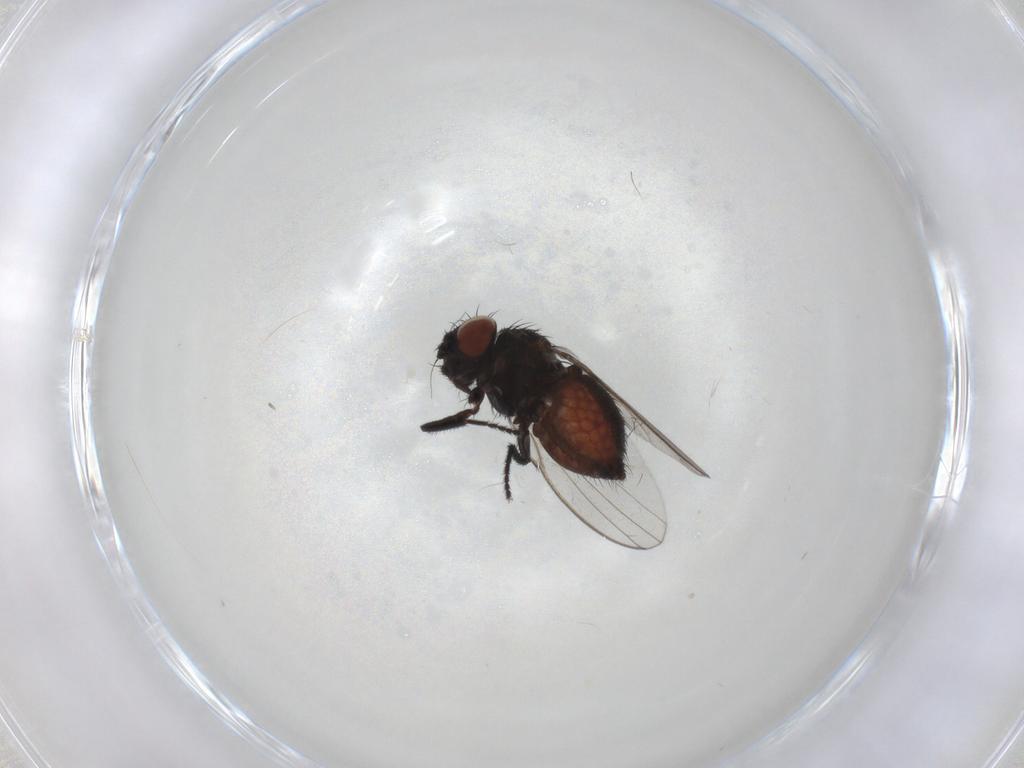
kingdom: Animalia
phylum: Arthropoda
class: Insecta
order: Diptera
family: Milichiidae
